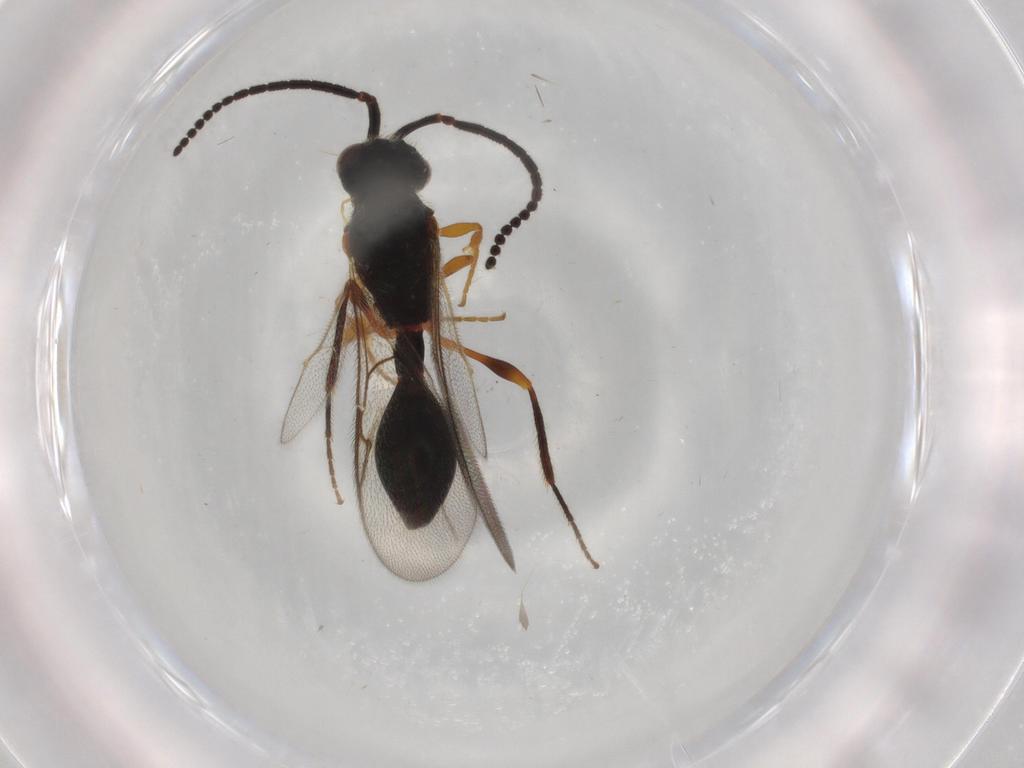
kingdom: Animalia
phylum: Arthropoda
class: Insecta
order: Hymenoptera
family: Diapriidae
